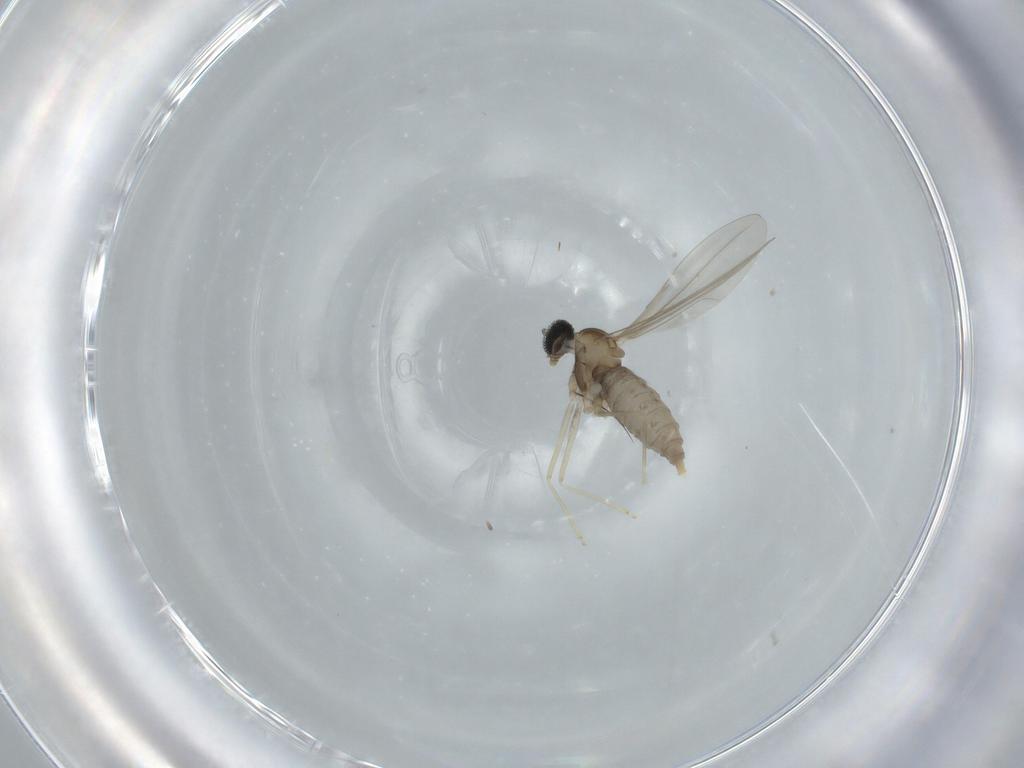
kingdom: Animalia
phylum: Arthropoda
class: Insecta
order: Diptera
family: Cecidomyiidae
